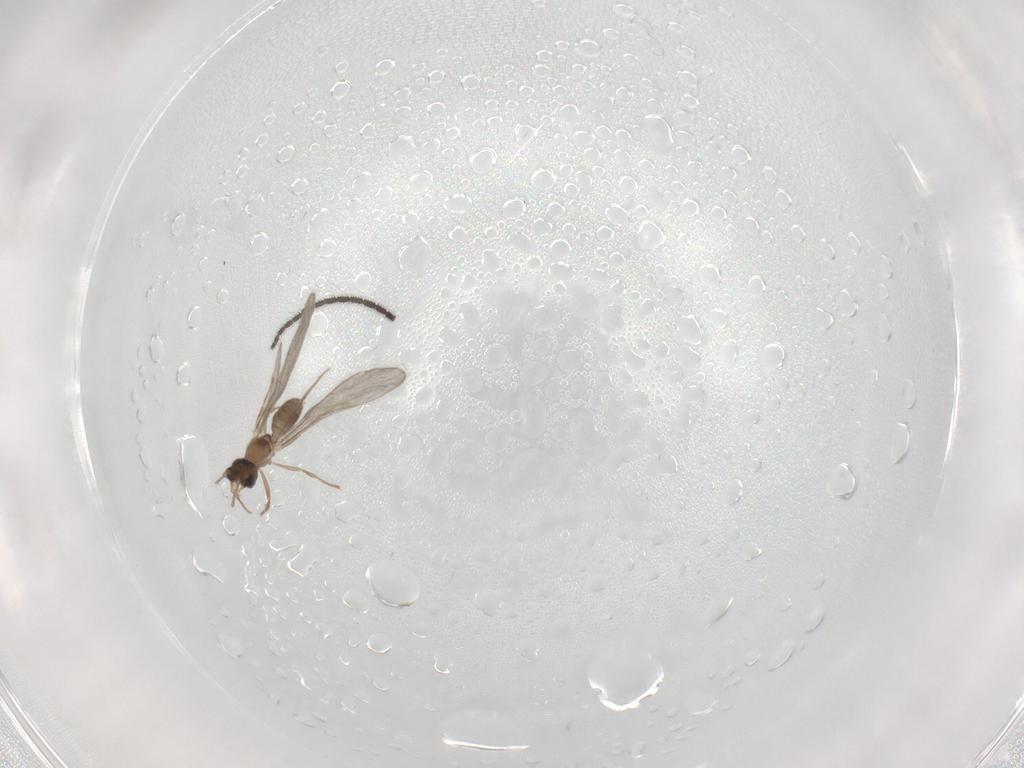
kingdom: Animalia
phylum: Arthropoda
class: Insecta
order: Hymenoptera
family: Formicidae
